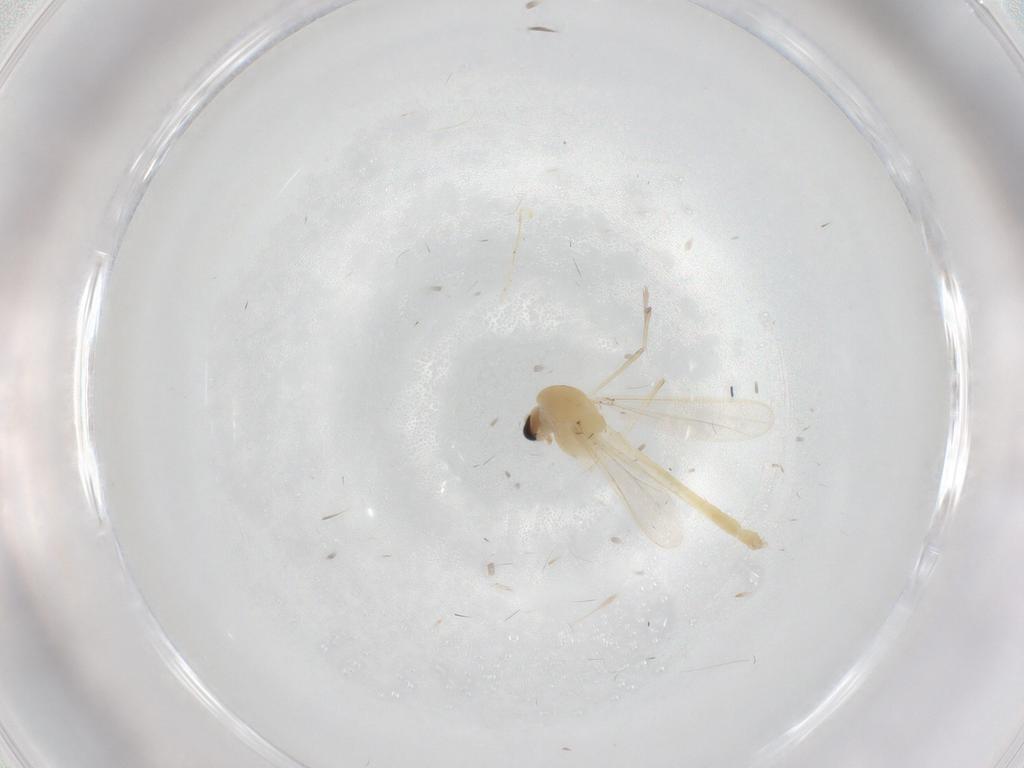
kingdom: Animalia
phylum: Arthropoda
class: Insecta
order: Diptera
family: Chironomidae
